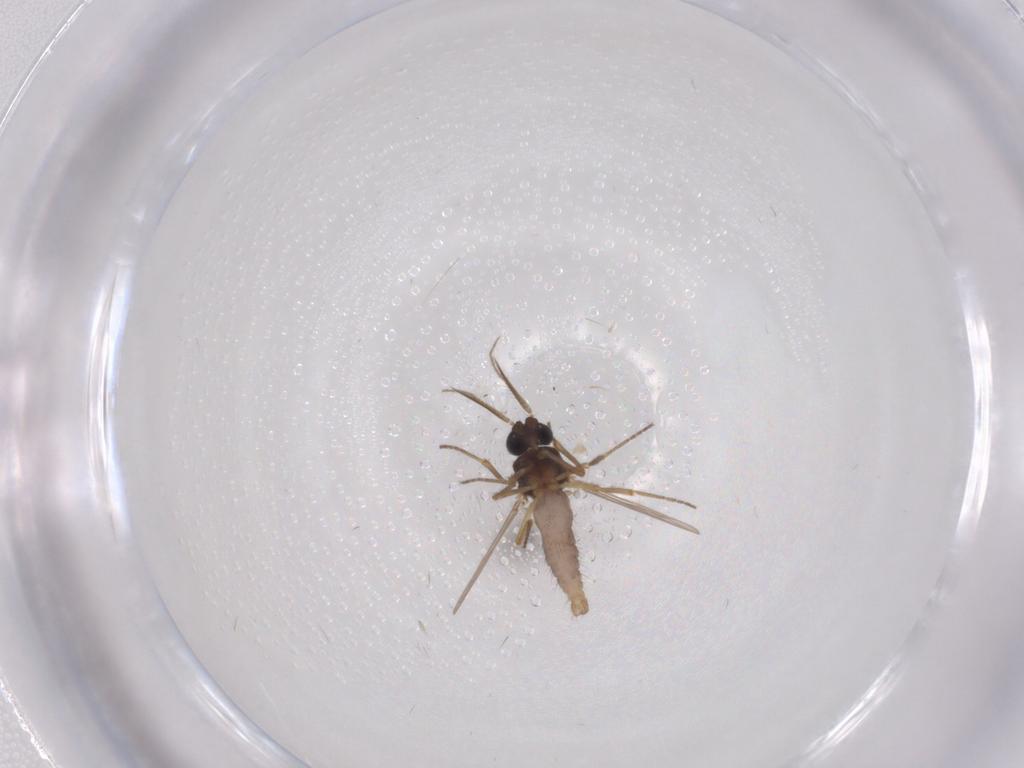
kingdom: Animalia
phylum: Arthropoda
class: Insecta
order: Diptera
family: Ceratopogonidae
